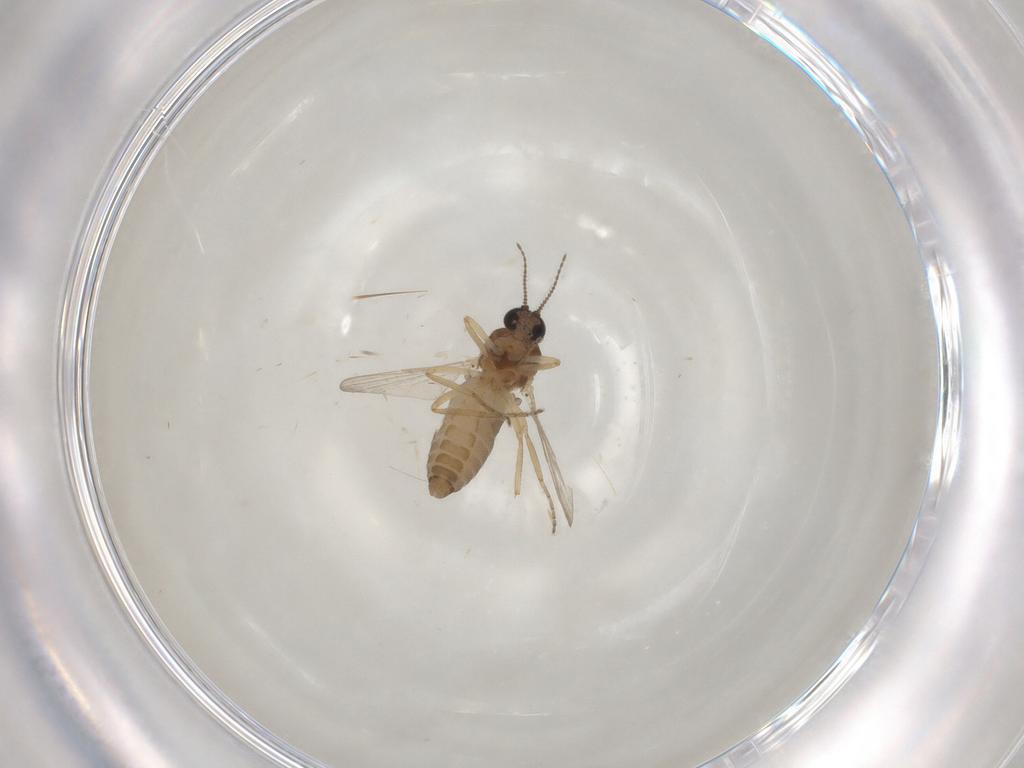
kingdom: Animalia
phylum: Arthropoda
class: Insecta
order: Diptera
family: Ceratopogonidae
